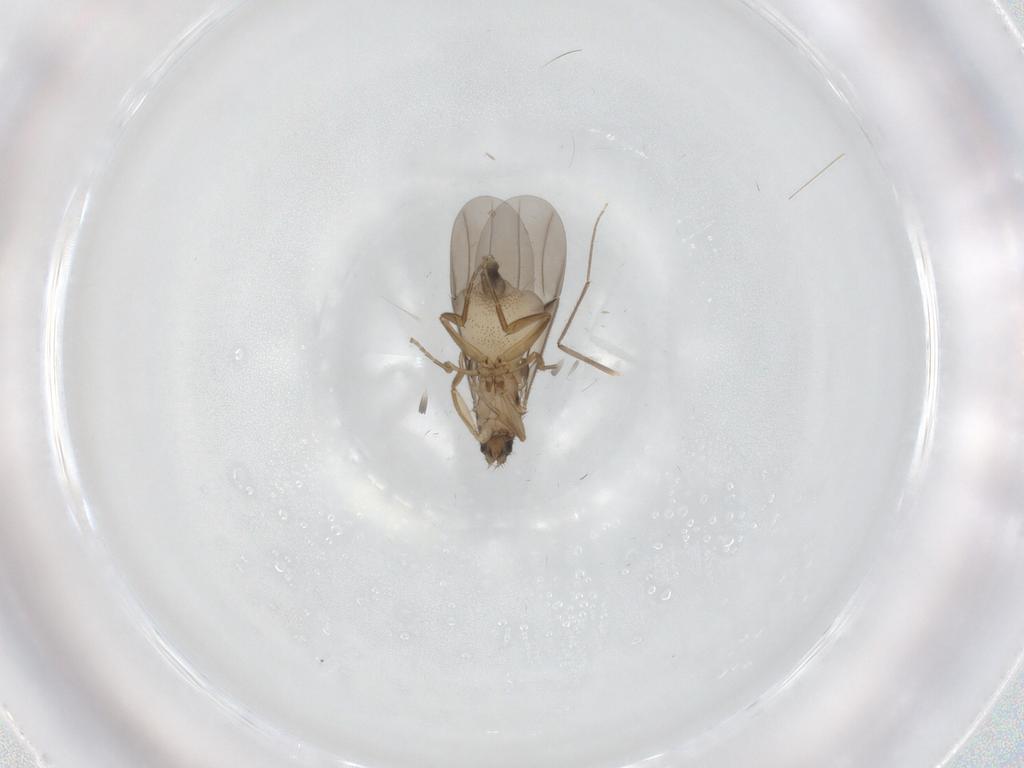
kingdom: Animalia
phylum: Arthropoda
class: Insecta
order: Diptera
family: Phoridae
